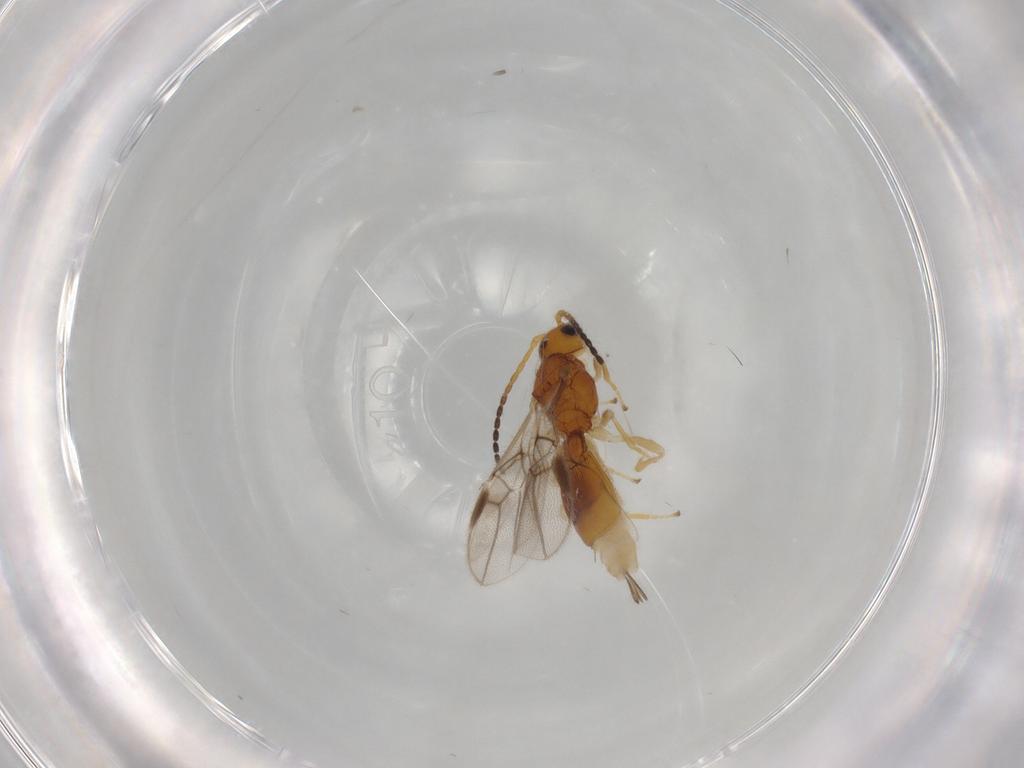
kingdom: Animalia
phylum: Arthropoda
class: Insecta
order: Hymenoptera
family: Braconidae
